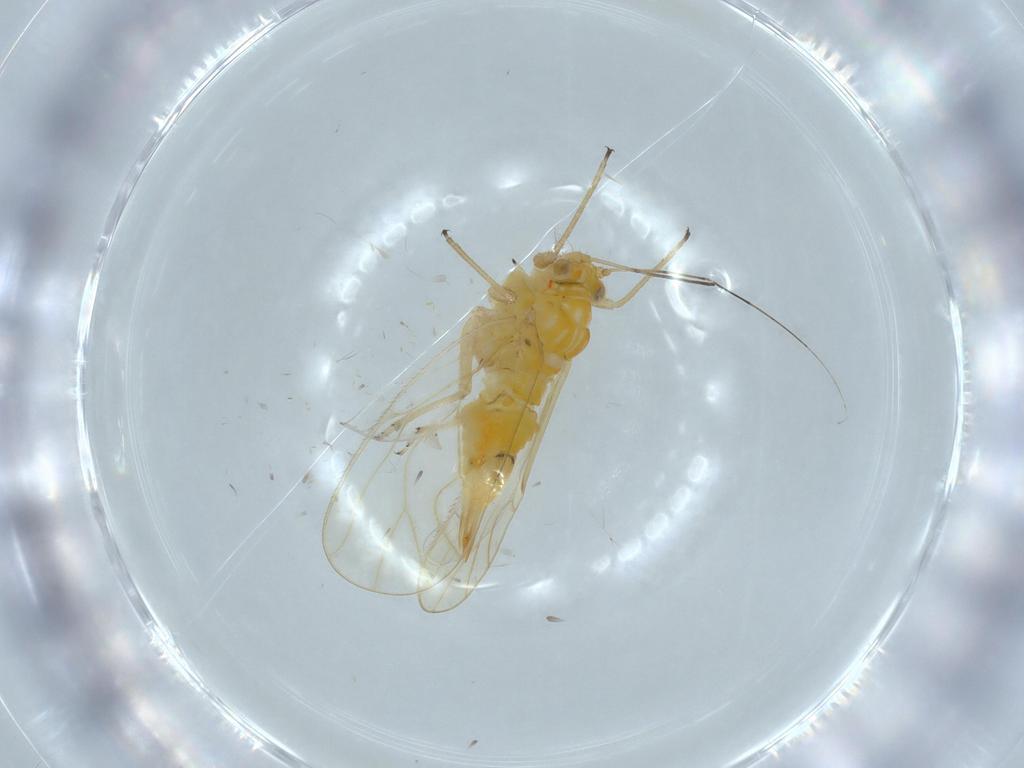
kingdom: Animalia
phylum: Arthropoda
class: Insecta
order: Hemiptera
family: Psyllidae
